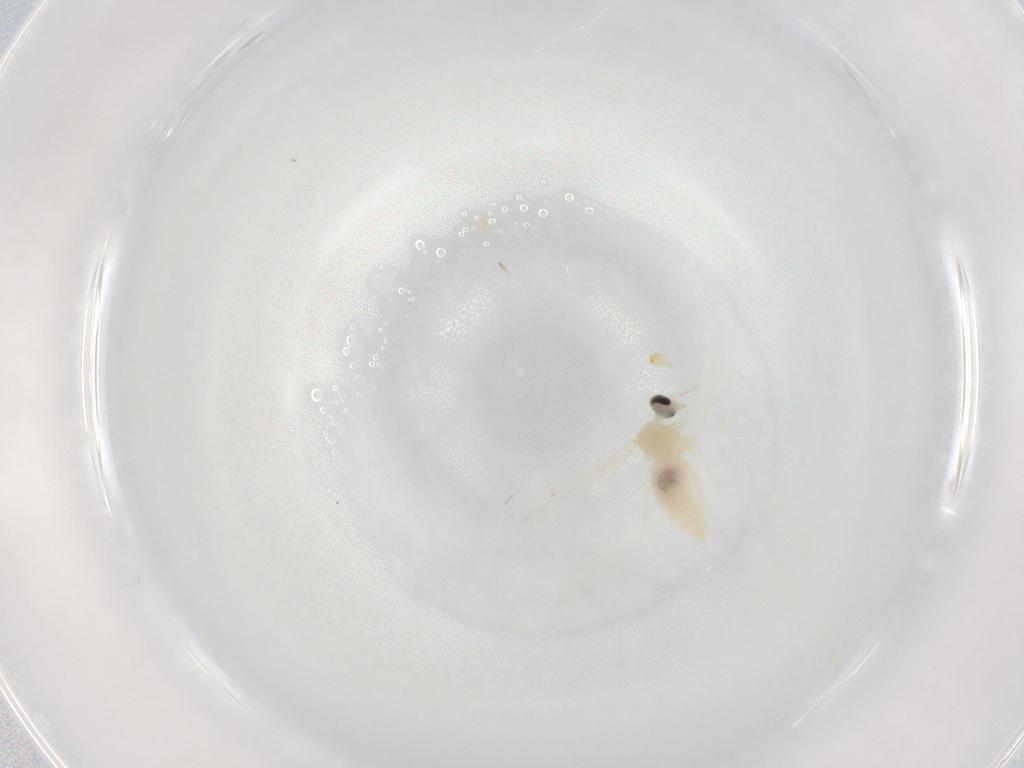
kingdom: Animalia
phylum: Arthropoda
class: Insecta
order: Diptera
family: Cecidomyiidae
